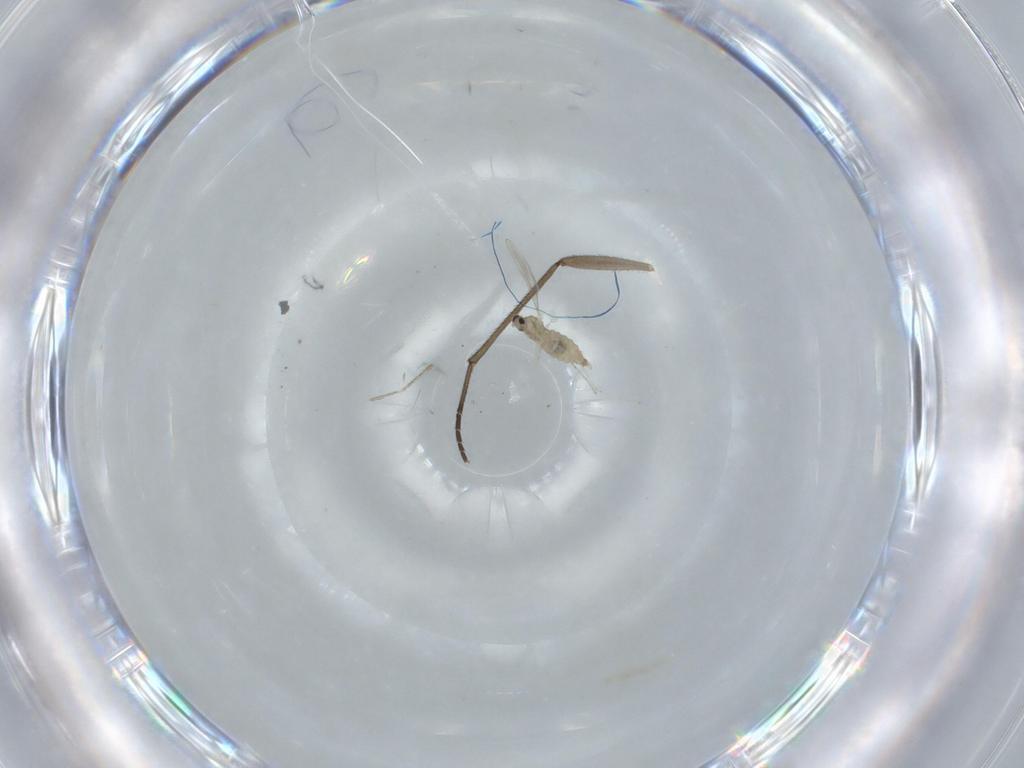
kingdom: Animalia
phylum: Arthropoda
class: Insecta
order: Diptera
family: Cecidomyiidae
